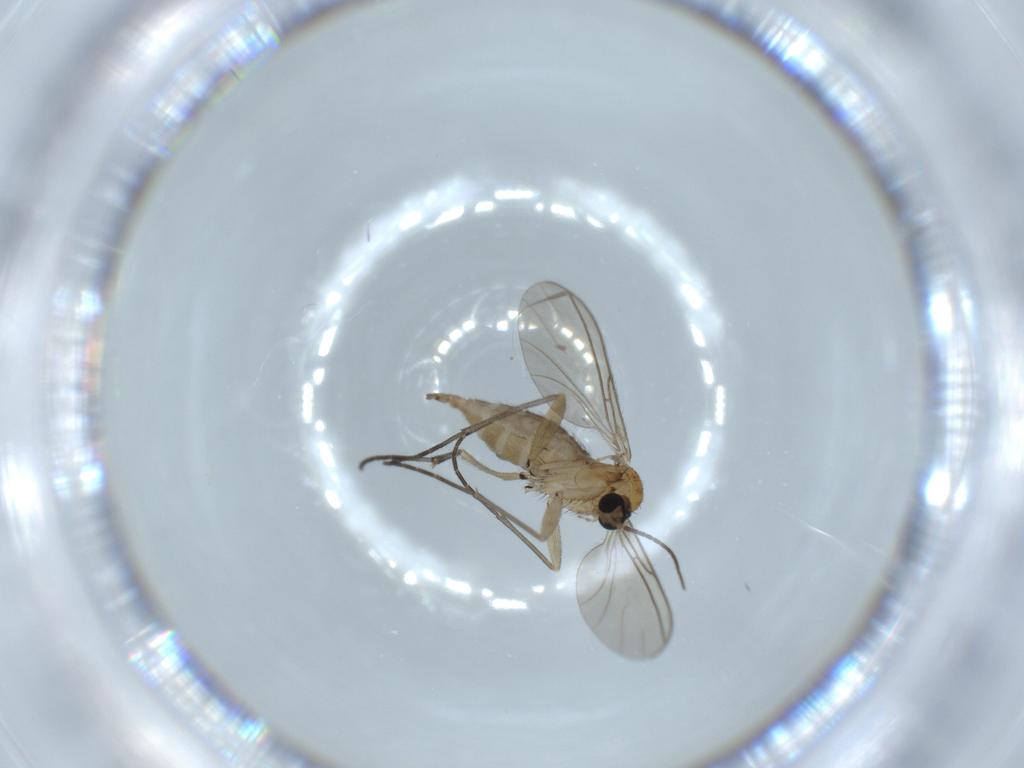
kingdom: Animalia
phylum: Arthropoda
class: Insecta
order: Diptera
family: Sciaridae
